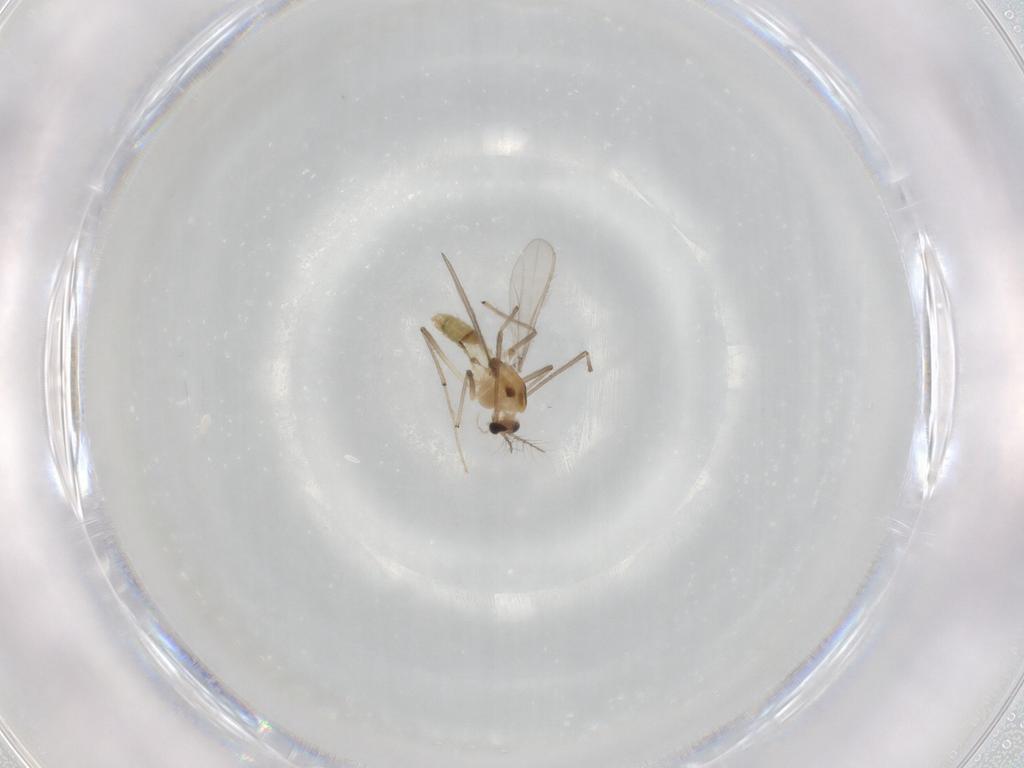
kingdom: Animalia
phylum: Arthropoda
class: Insecta
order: Diptera
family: Chironomidae
